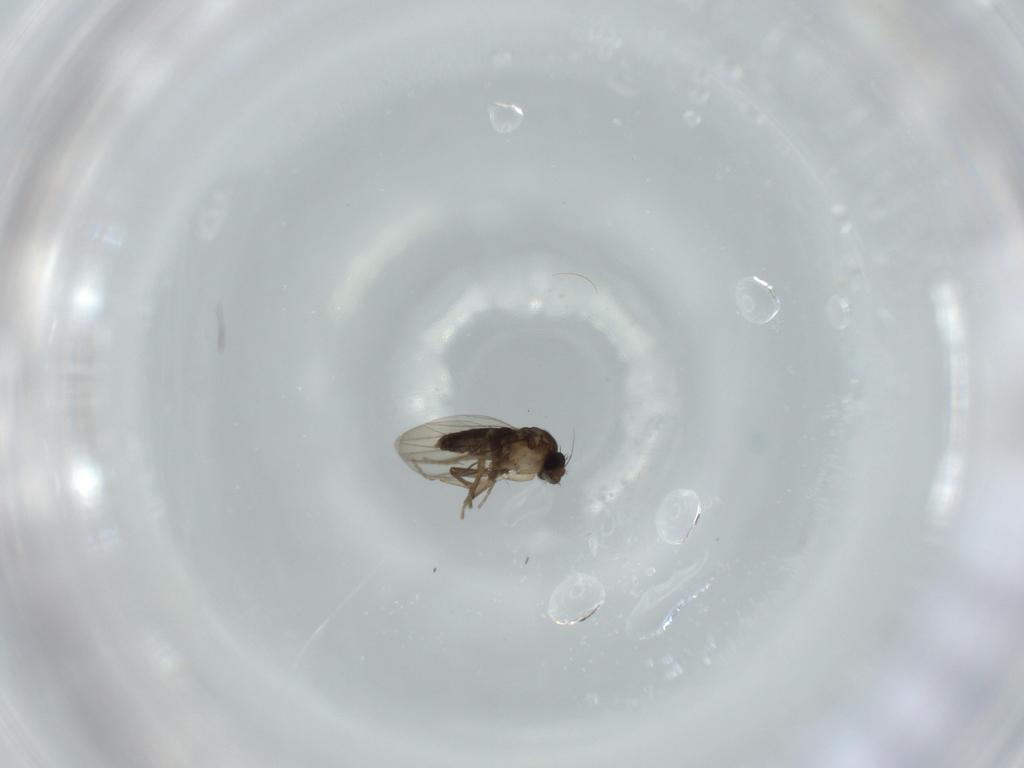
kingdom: Animalia
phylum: Arthropoda
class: Insecta
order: Diptera
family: Phoridae
